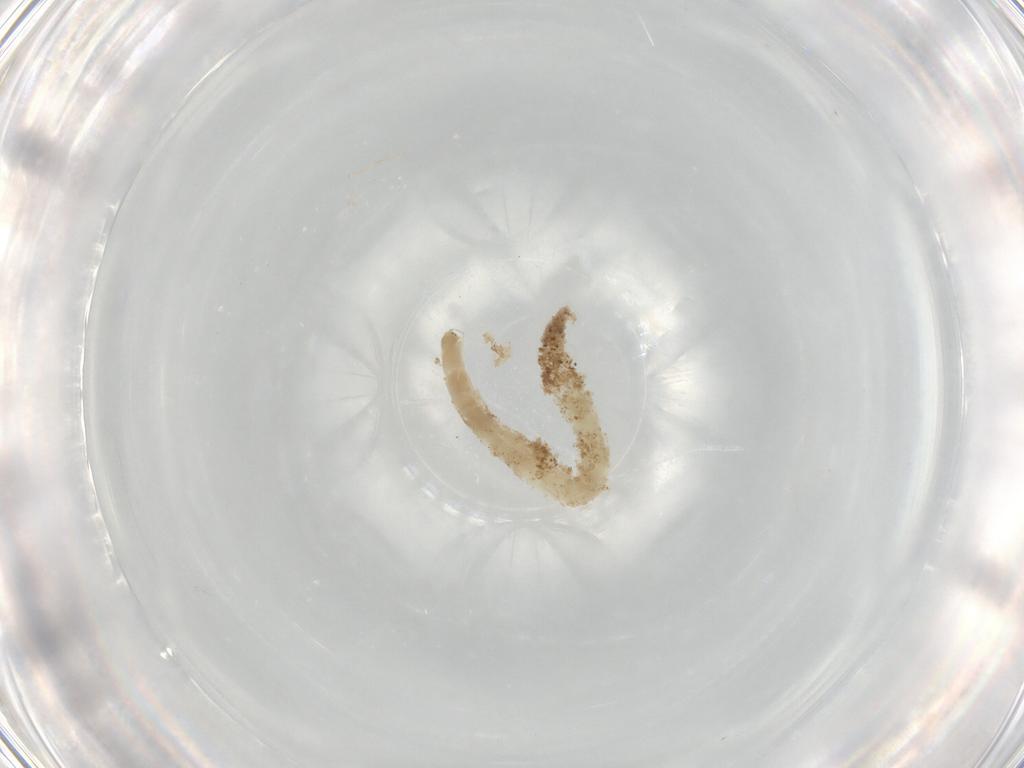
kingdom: Animalia
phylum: Arthropoda
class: Insecta
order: Diptera
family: Chironomidae
